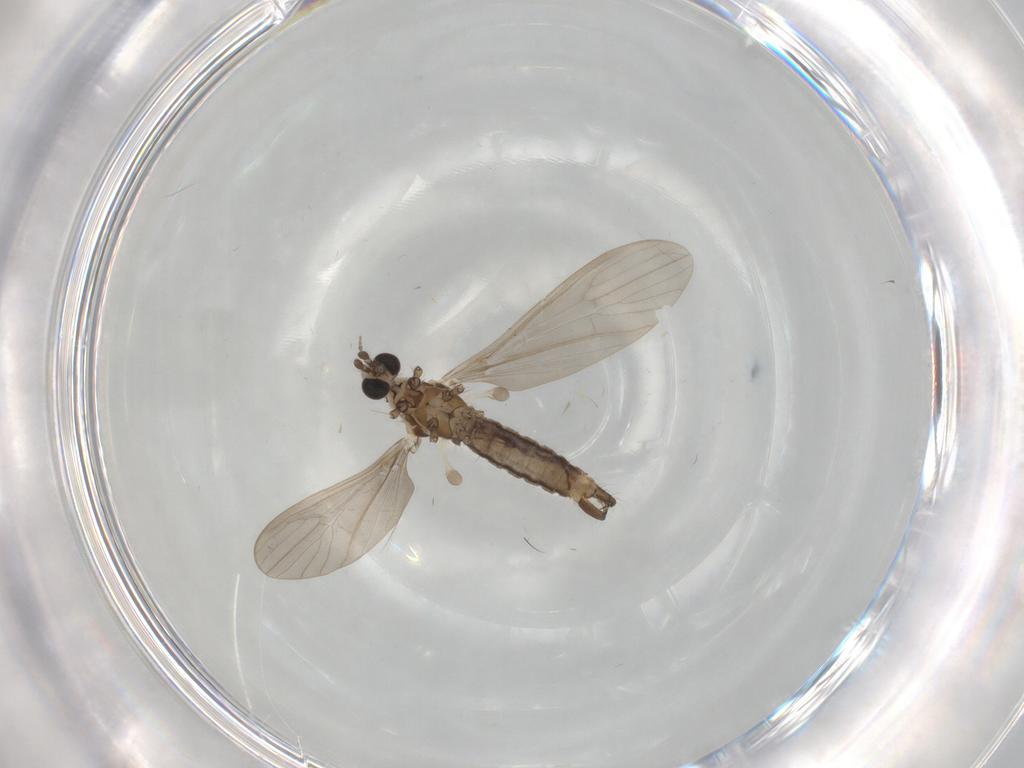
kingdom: Animalia
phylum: Arthropoda
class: Insecta
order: Diptera
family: Limoniidae
